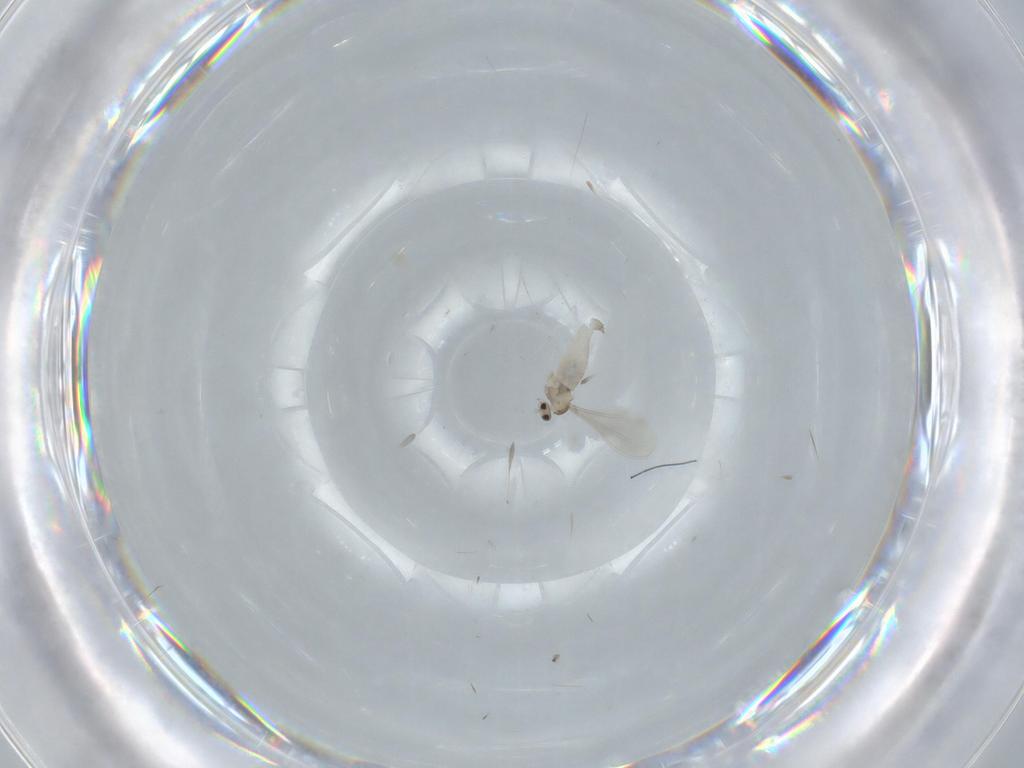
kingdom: Animalia
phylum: Arthropoda
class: Insecta
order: Diptera
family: Cecidomyiidae
